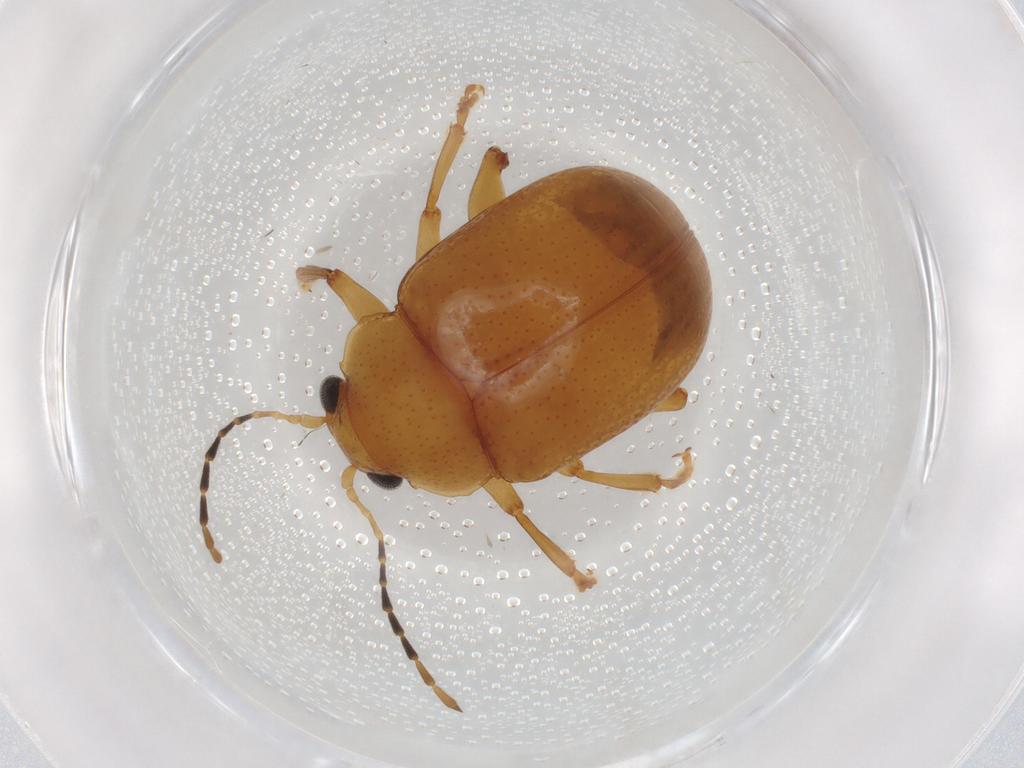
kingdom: Animalia
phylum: Arthropoda
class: Insecta
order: Coleoptera
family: Chrysomelidae
